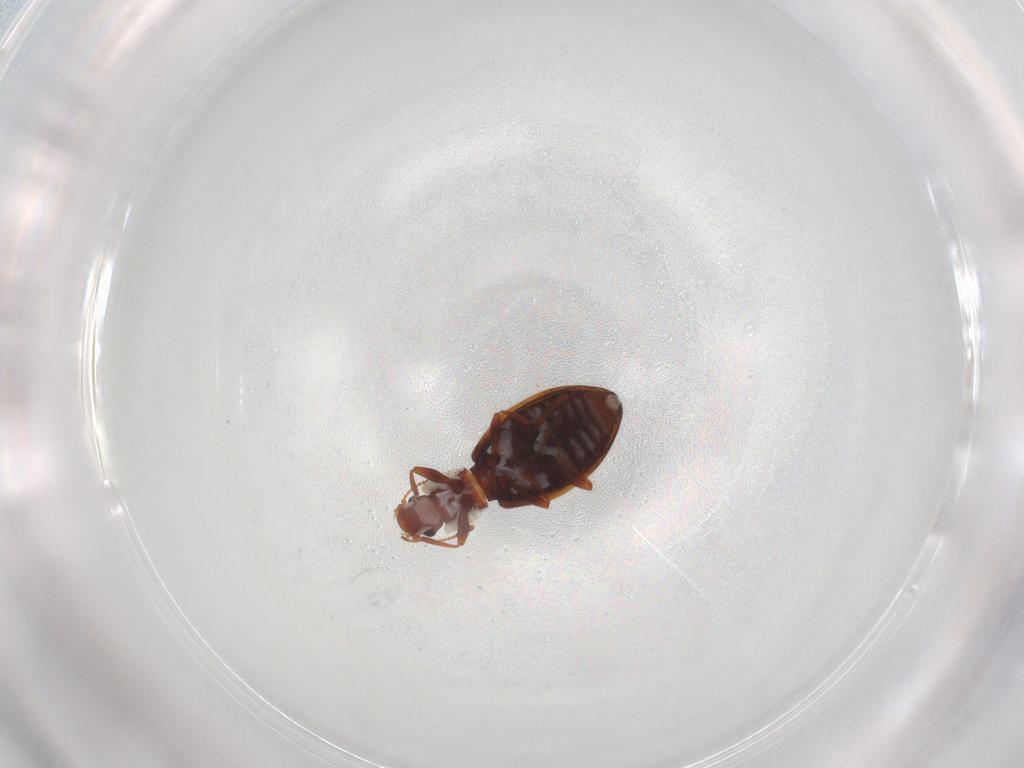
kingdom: Animalia
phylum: Arthropoda
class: Insecta
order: Coleoptera
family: Latridiidae
